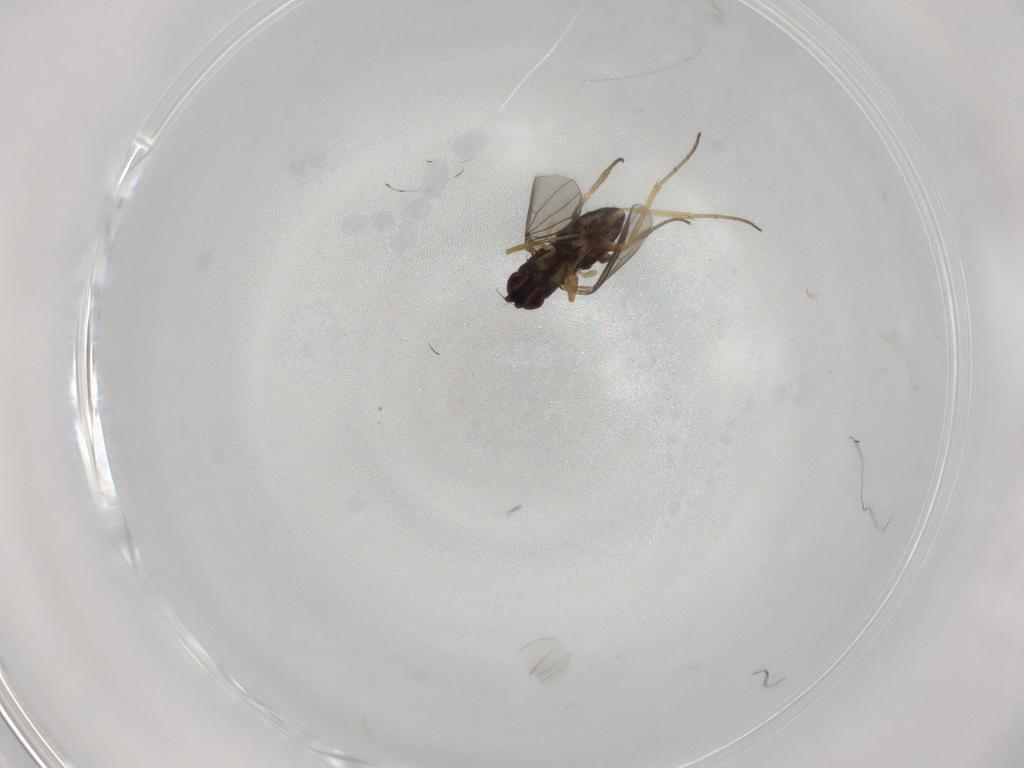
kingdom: Animalia
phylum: Arthropoda
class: Insecta
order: Diptera
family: Dolichopodidae
